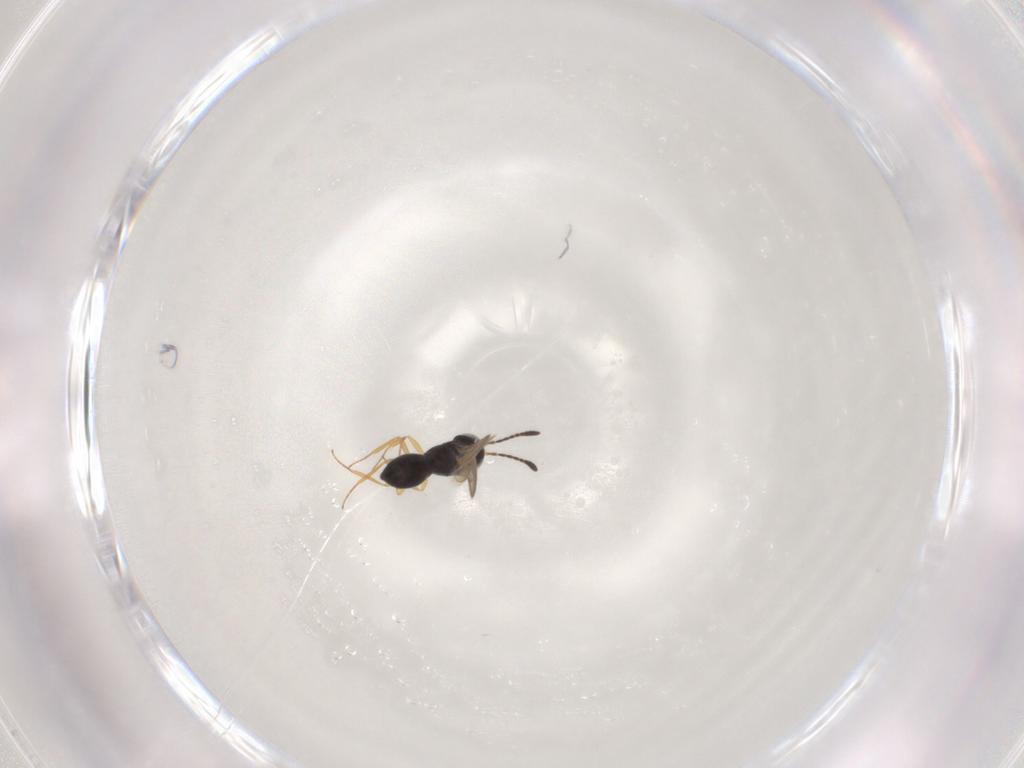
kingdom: Animalia
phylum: Arthropoda
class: Insecta
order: Hymenoptera
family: Scelionidae
